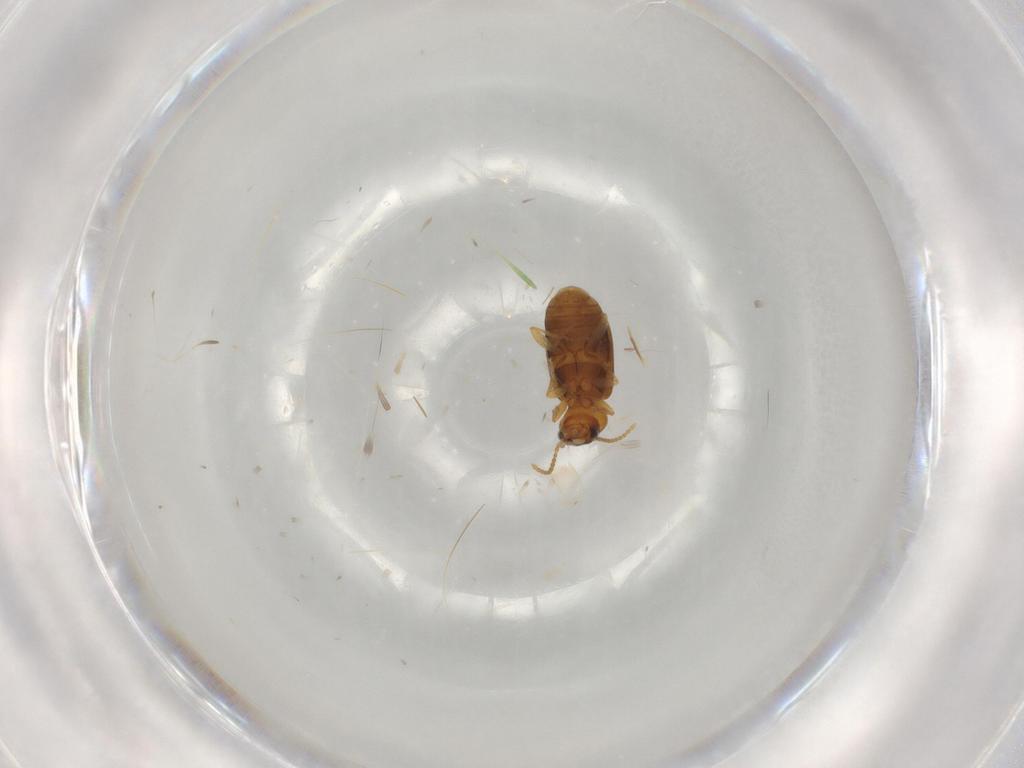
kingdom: Animalia
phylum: Arthropoda
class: Insecta
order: Coleoptera
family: Carabidae
